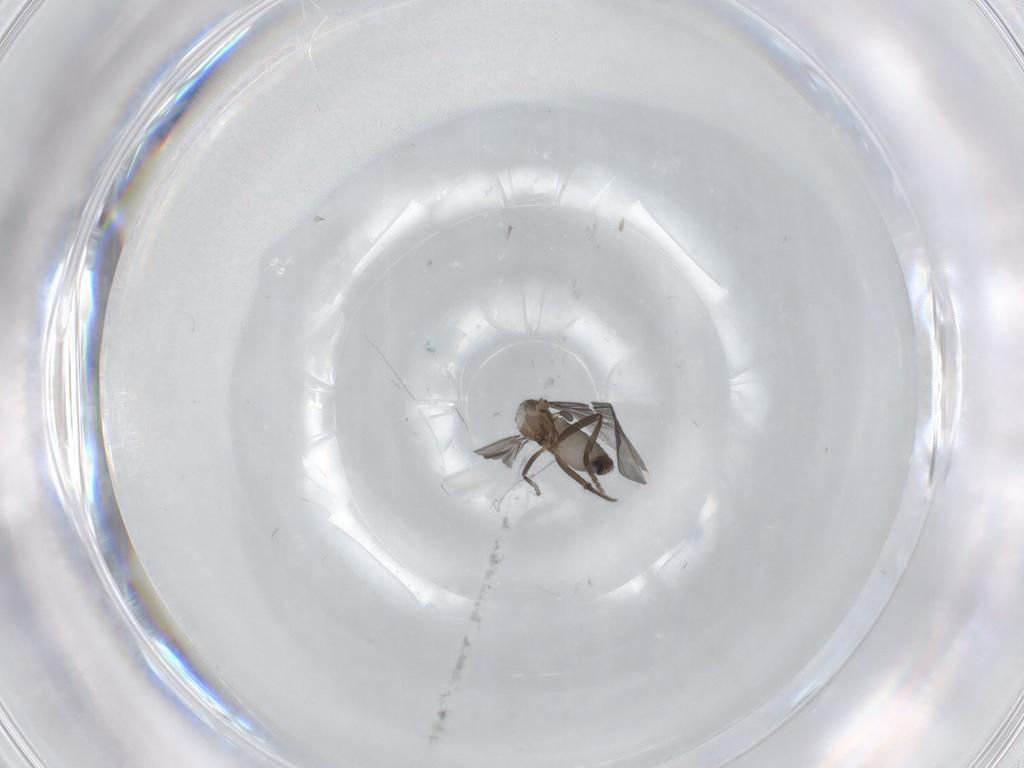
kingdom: Animalia
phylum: Arthropoda
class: Insecta
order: Diptera
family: Phoridae
